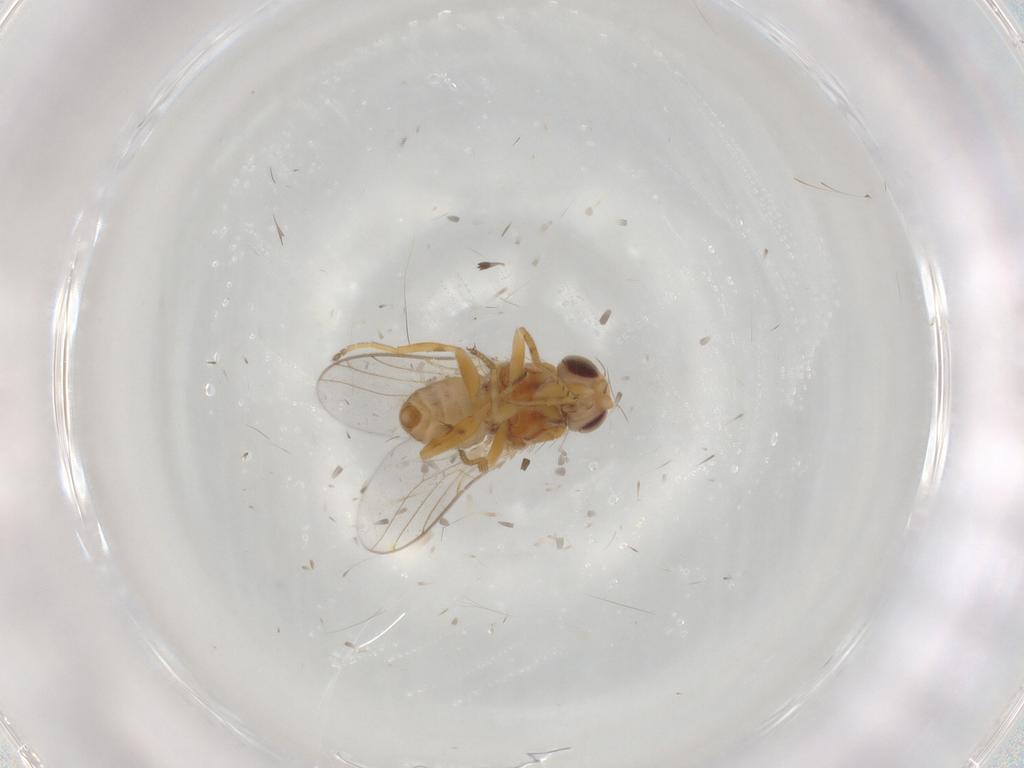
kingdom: Animalia
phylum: Arthropoda
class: Insecta
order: Diptera
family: Chloropidae
